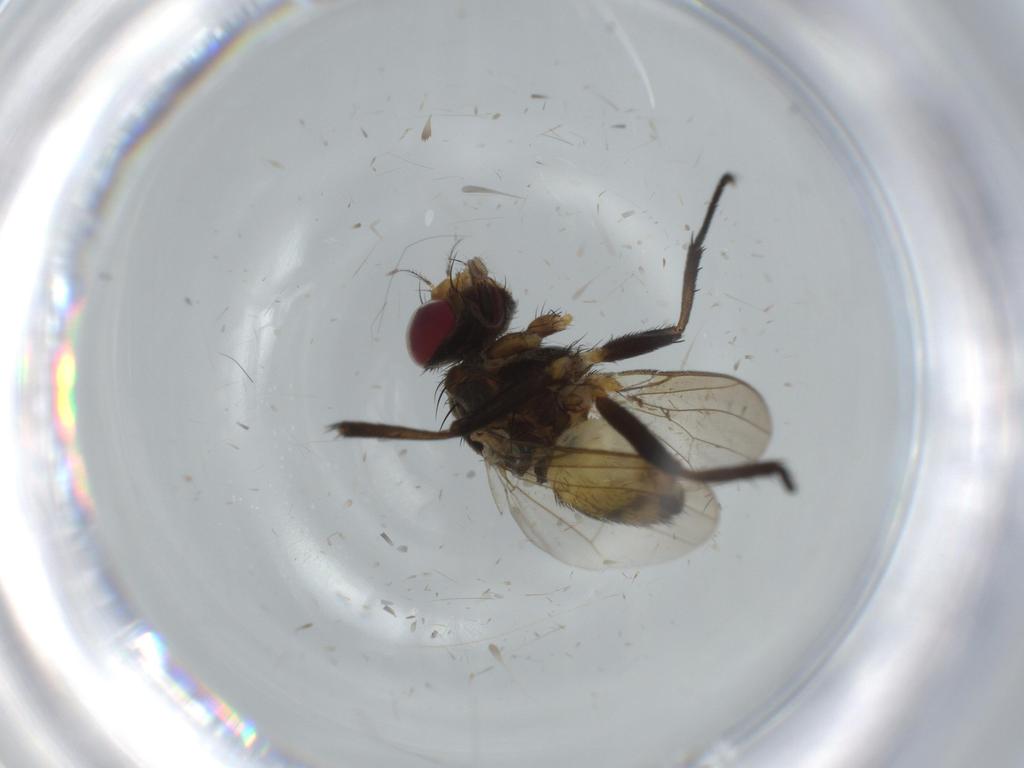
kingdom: Animalia
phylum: Arthropoda
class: Insecta
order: Diptera
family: Anthomyiidae
